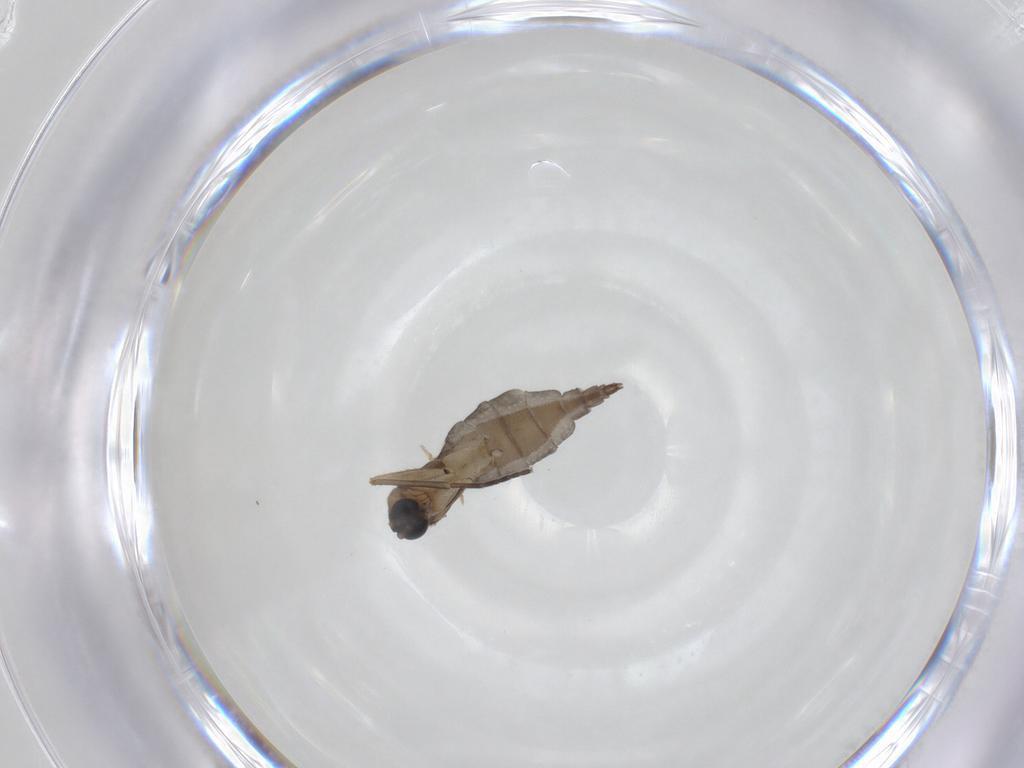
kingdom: Animalia
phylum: Arthropoda
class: Insecta
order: Diptera
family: Sciaridae
